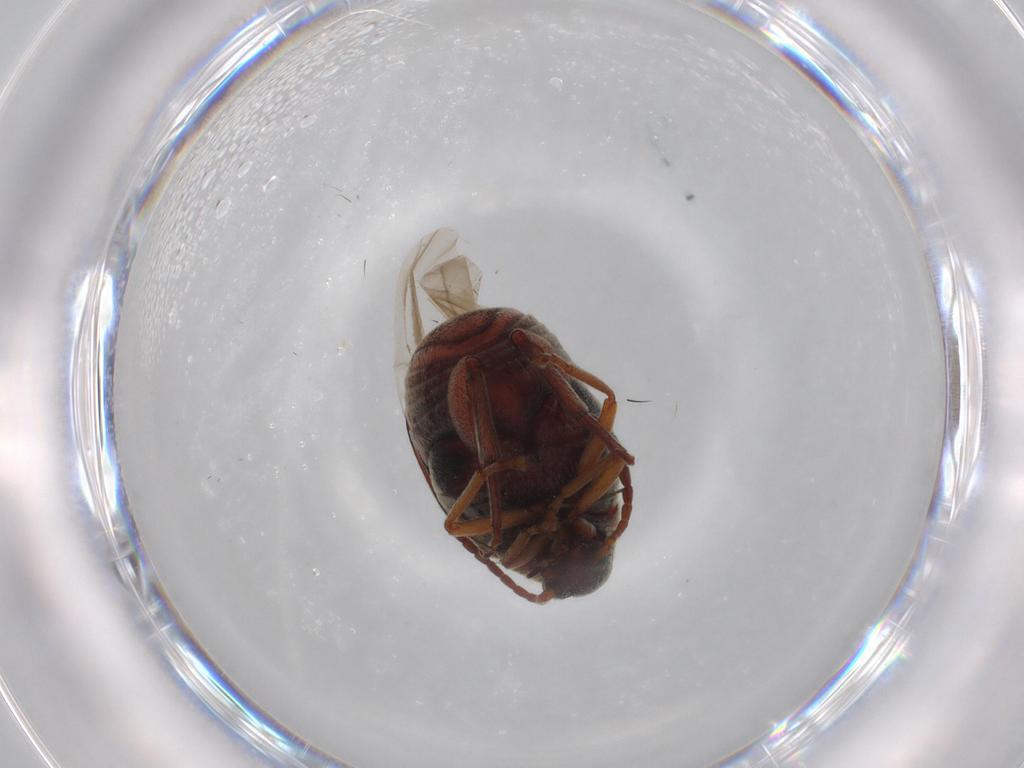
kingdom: Animalia
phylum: Arthropoda
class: Insecta
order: Coleoptera
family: Chrysomelidae
